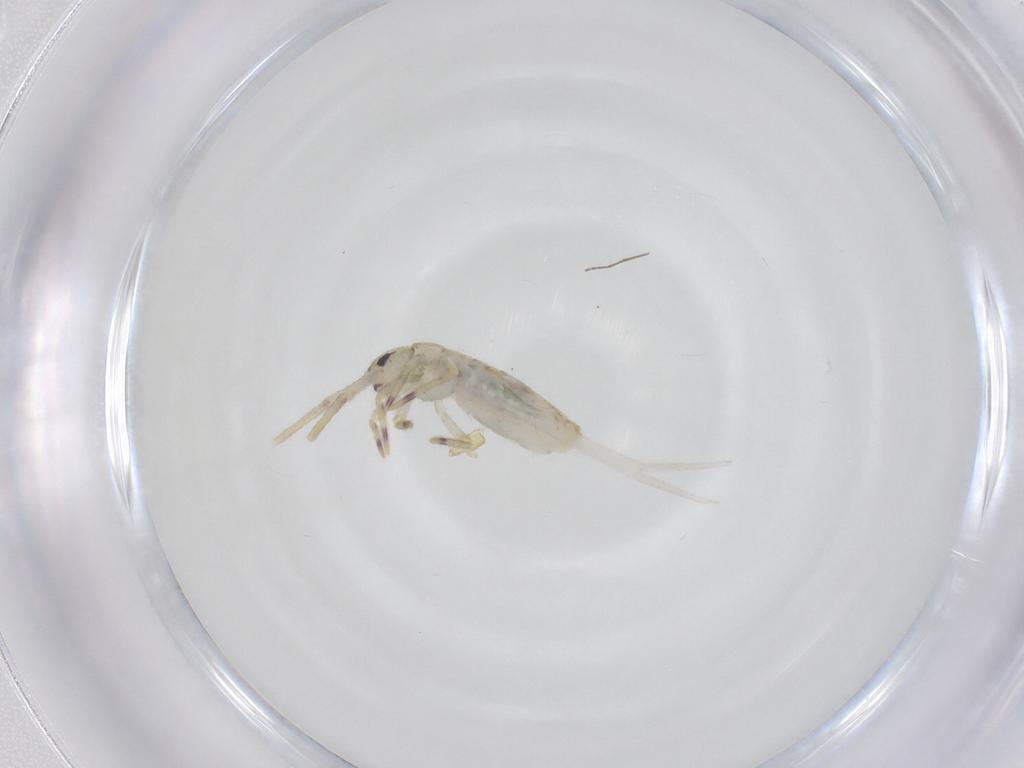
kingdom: Animalia
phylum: Arthropoda
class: Collembola
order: Entomobryomorpha
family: Entomobryidae
